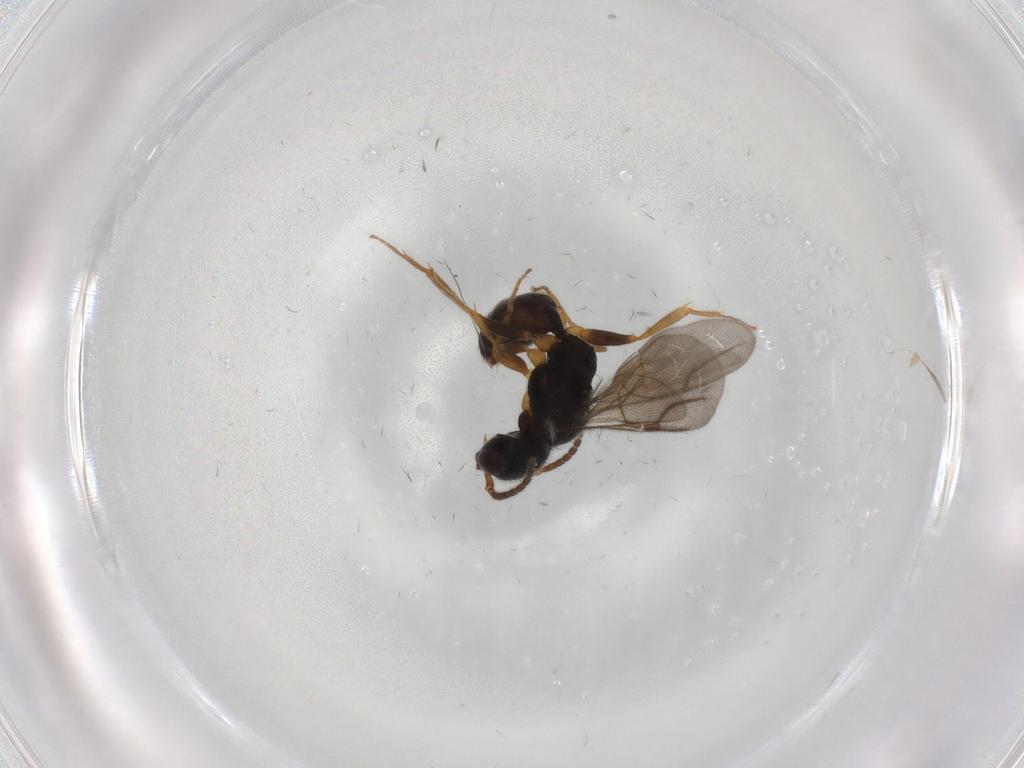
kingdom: Animalia
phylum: Arthropoda
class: Insecta
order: Hymenoptera
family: Bethylidae
